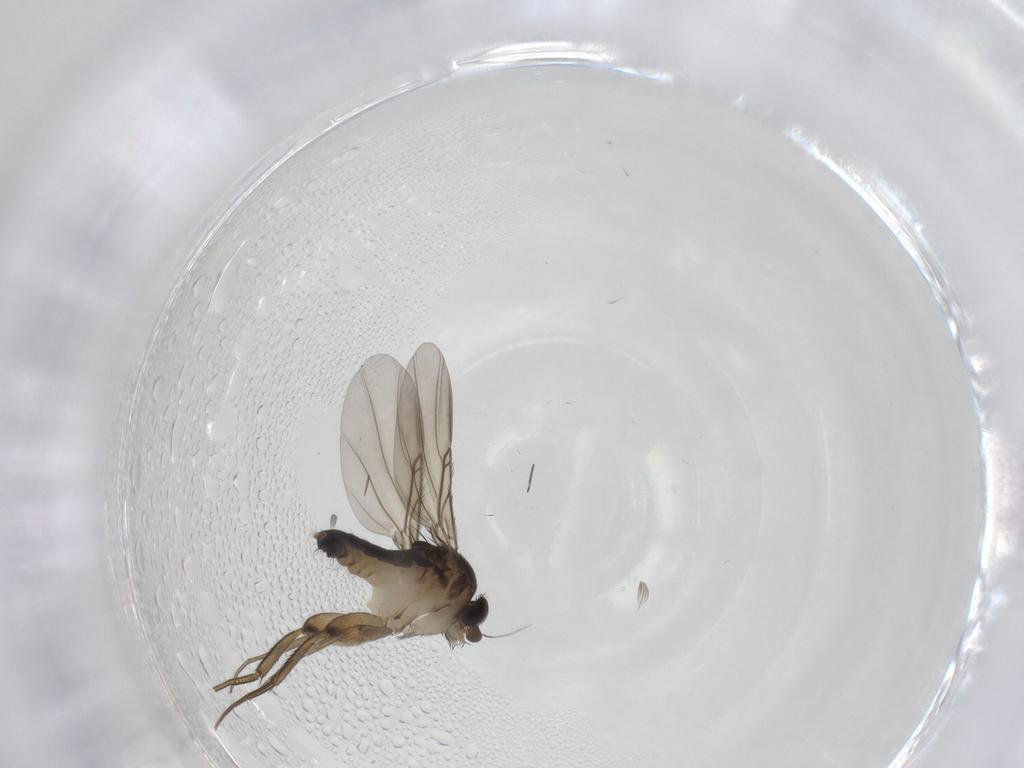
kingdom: Animalia
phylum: Arthropoda
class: Insecta
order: Diptera
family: Phoridae
